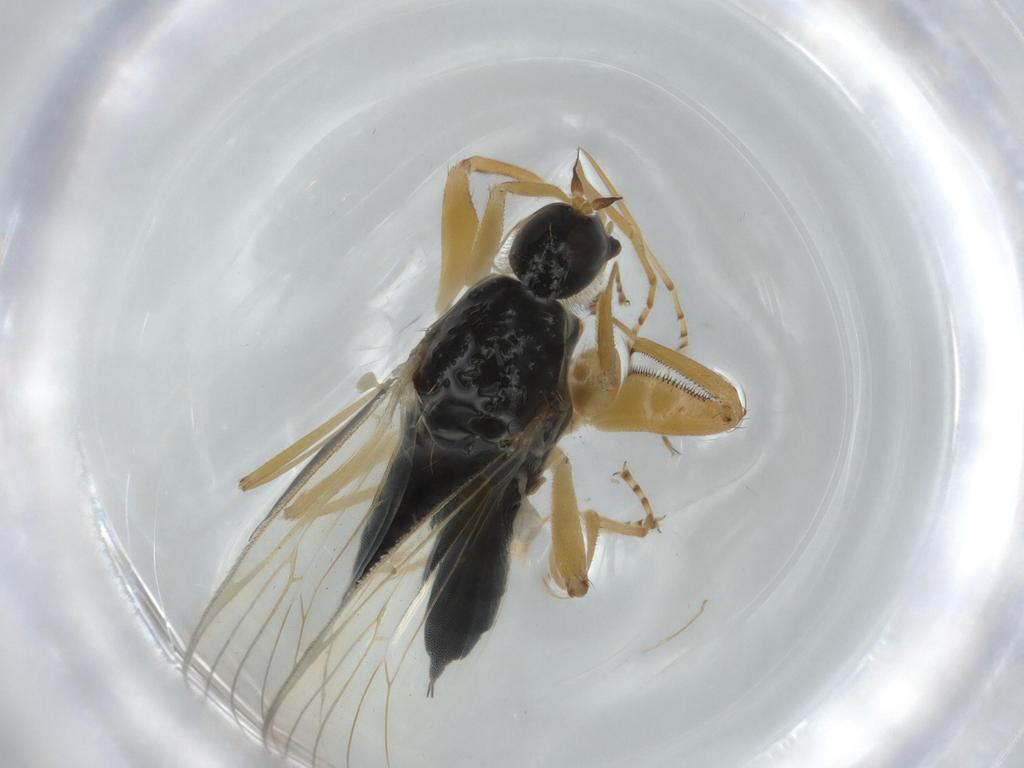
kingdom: Animalia
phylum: Arthropoda
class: Insecta
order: Diptera
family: Hybotidae
